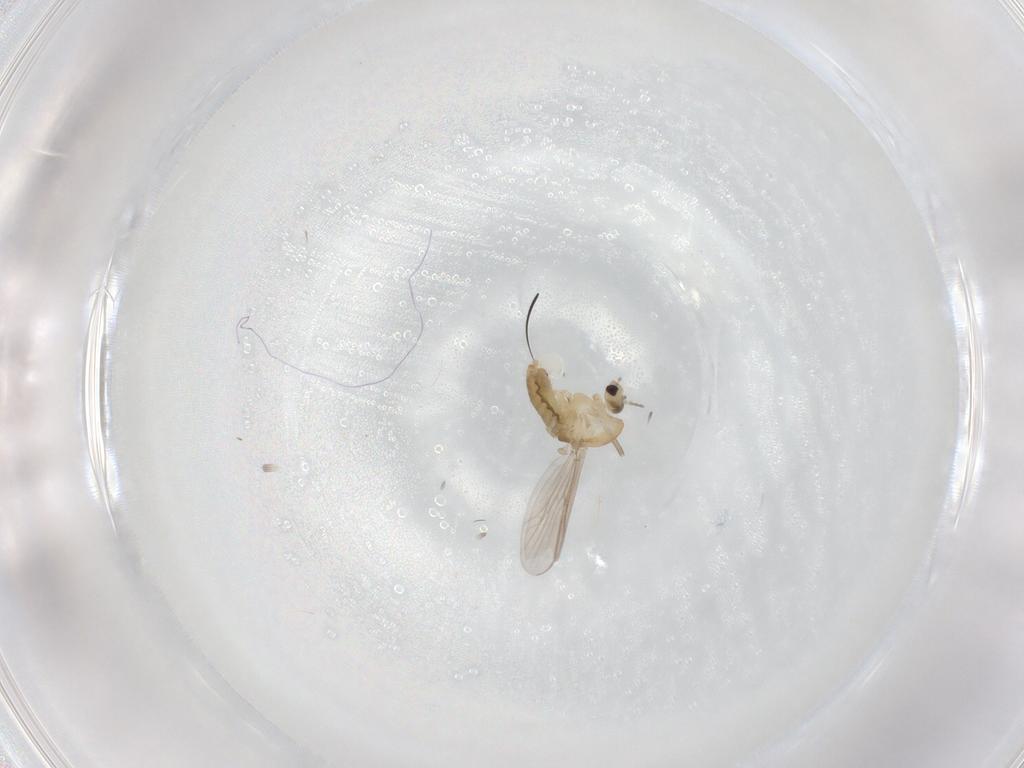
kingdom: Animalia
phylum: Arthropoda
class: Insecta
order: Diptera
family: Chironomidae
